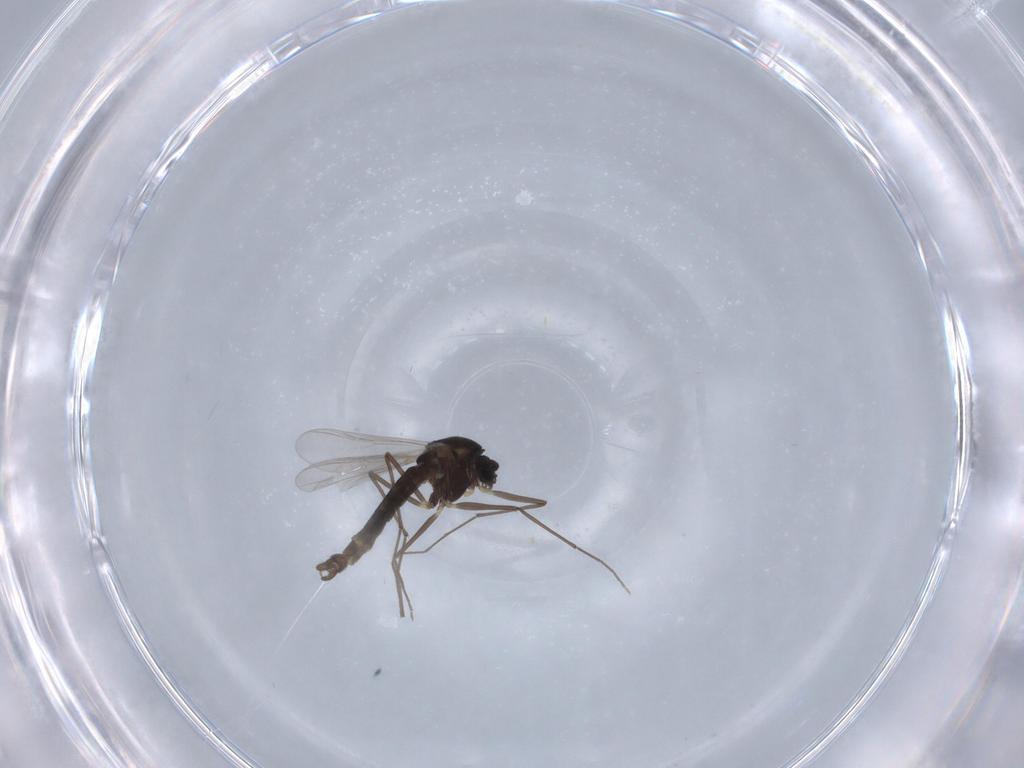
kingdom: Animalia
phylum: Arthropoda
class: Insecta
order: Diptera
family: Chironomidae
